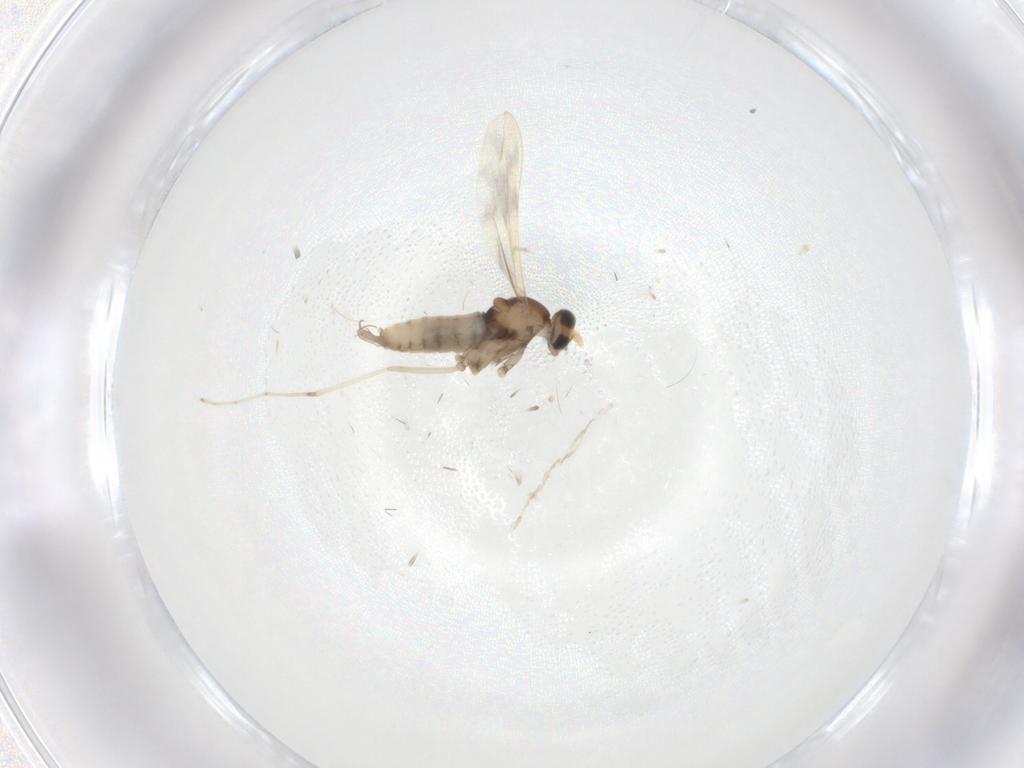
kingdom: Animalia
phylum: Arthropoda
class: Insecta
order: Diptera
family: Cecidomyiidae
